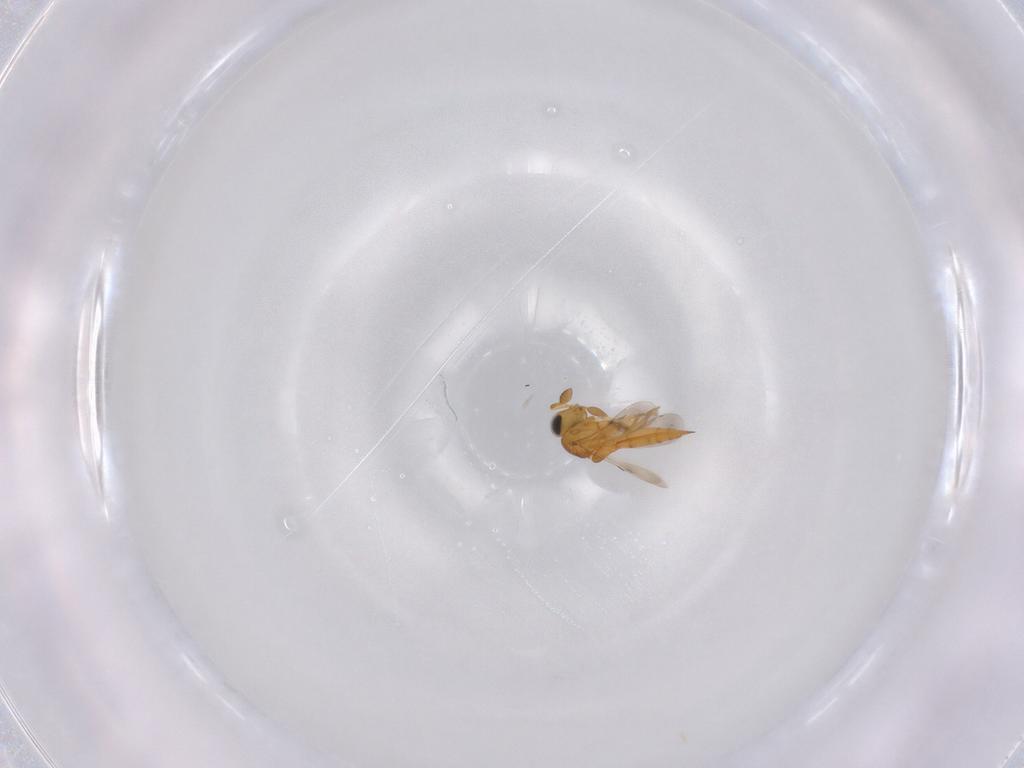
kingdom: Animalia
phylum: Arthropoda
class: Insecta
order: Hymenoptera
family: Scelionidae
